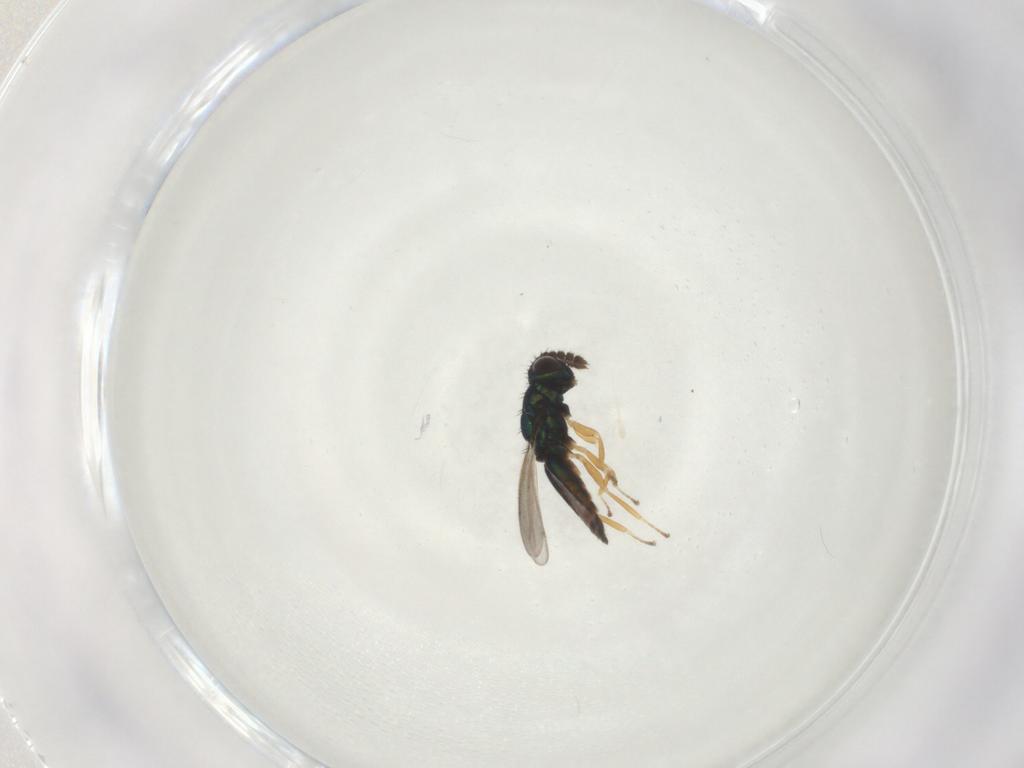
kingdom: Animalia
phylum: Arthropoda
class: Insecta
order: Hymenoptera
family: Eulophidae
